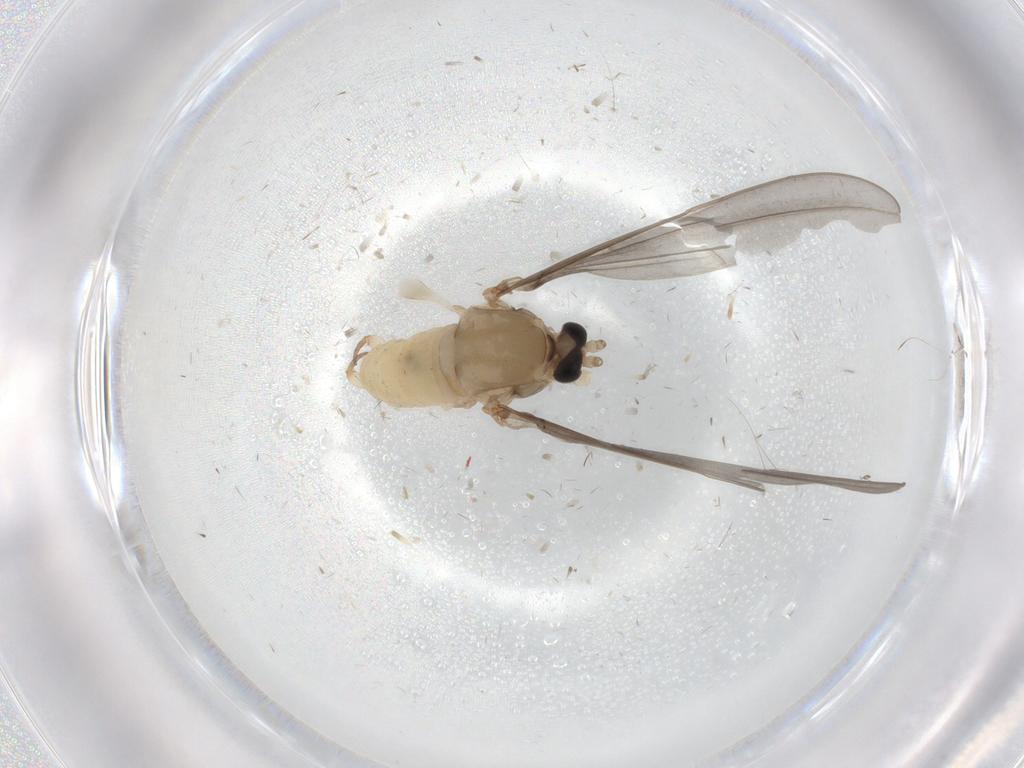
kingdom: Animalia
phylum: Arthropoda
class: Insecta
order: Diptera
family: Cecidomyiidae
